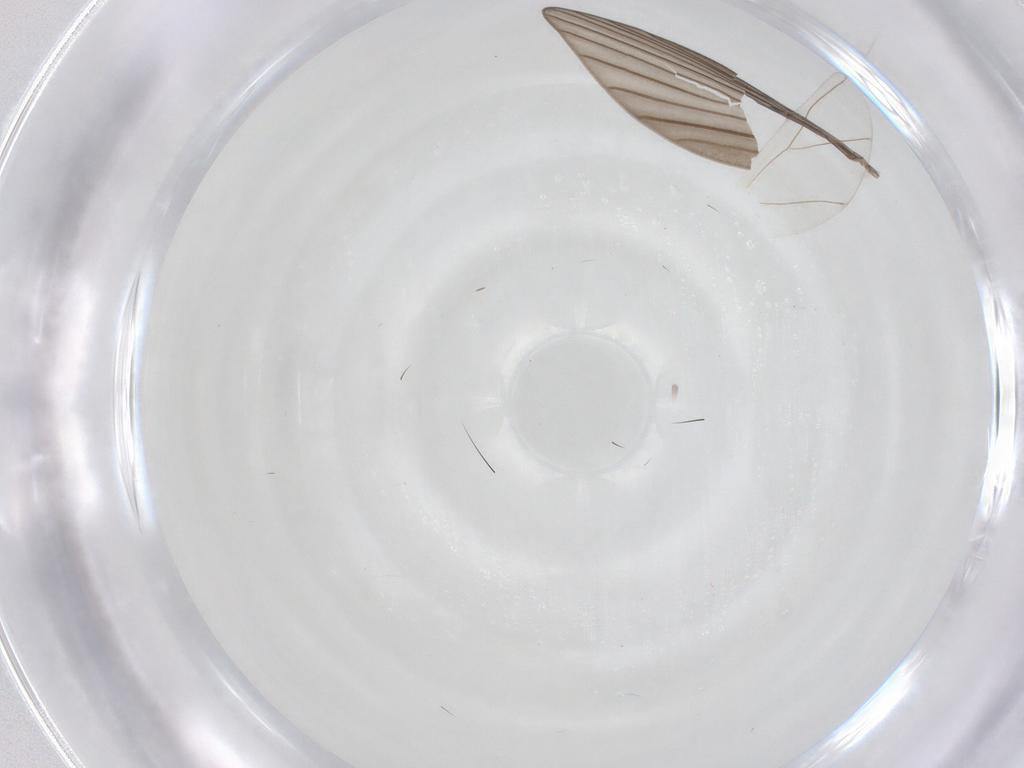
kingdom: Animalia
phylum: Arthropoda
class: Insecta
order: Diptera
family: Psychodidae
